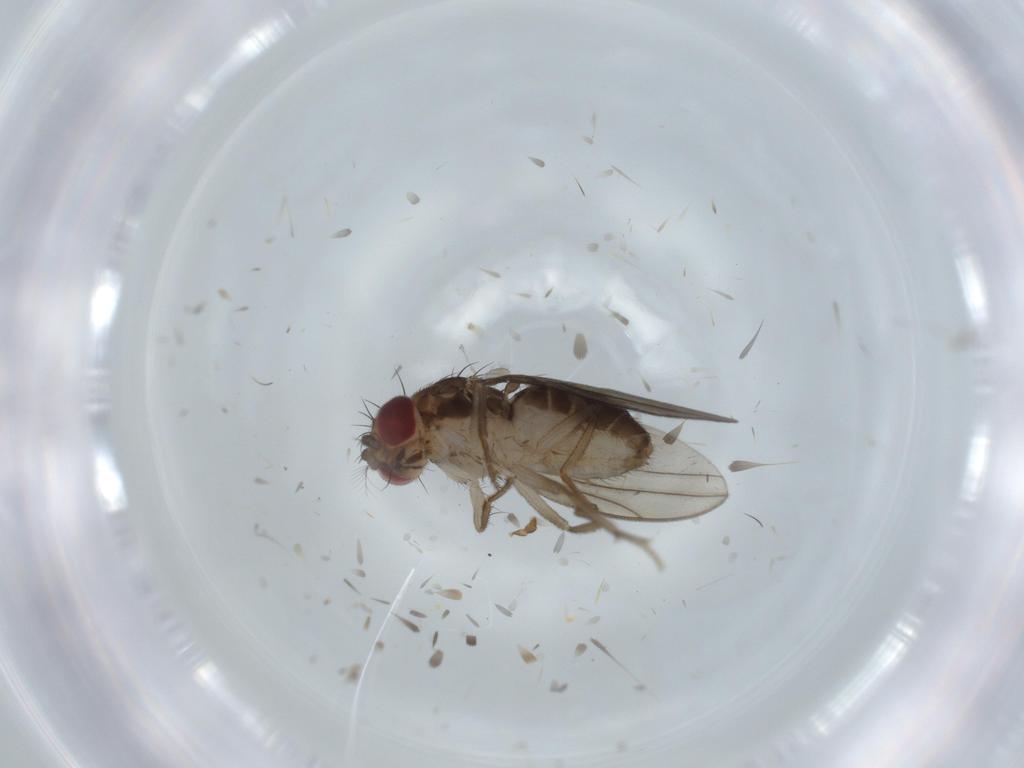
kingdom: Animalia
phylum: Arthropoda
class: Insecta
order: Diptera
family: Drosophilidae
